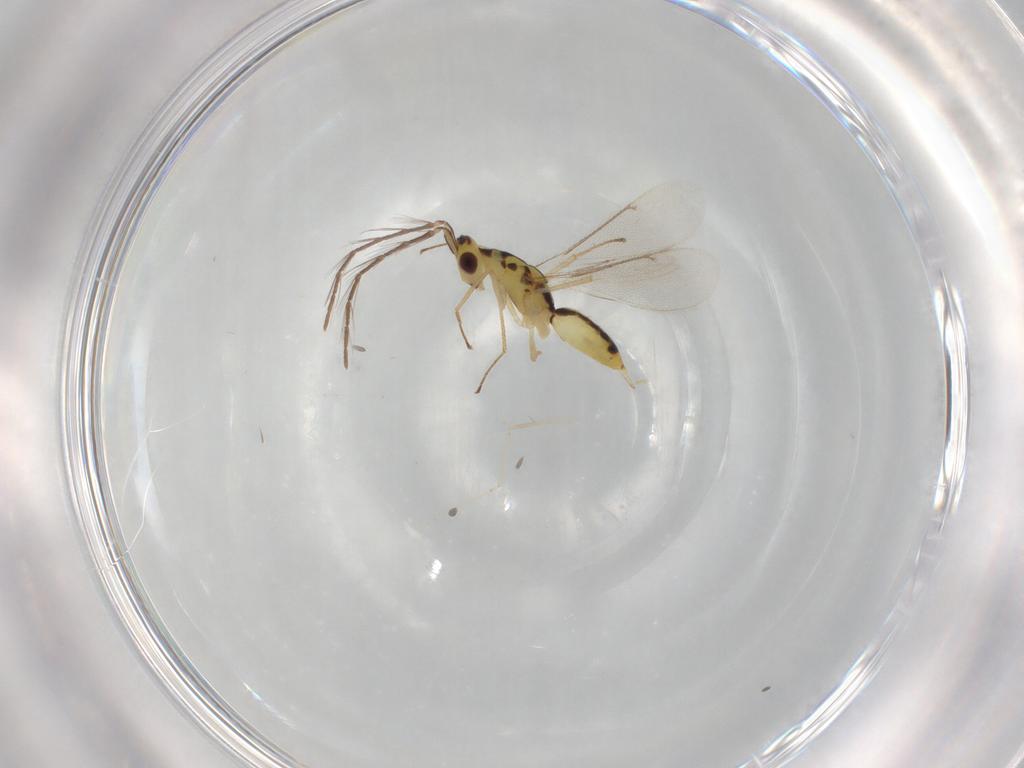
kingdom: Animalia
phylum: Arthropoda
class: Insecta
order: Hymenoptera
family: Eulophidae
